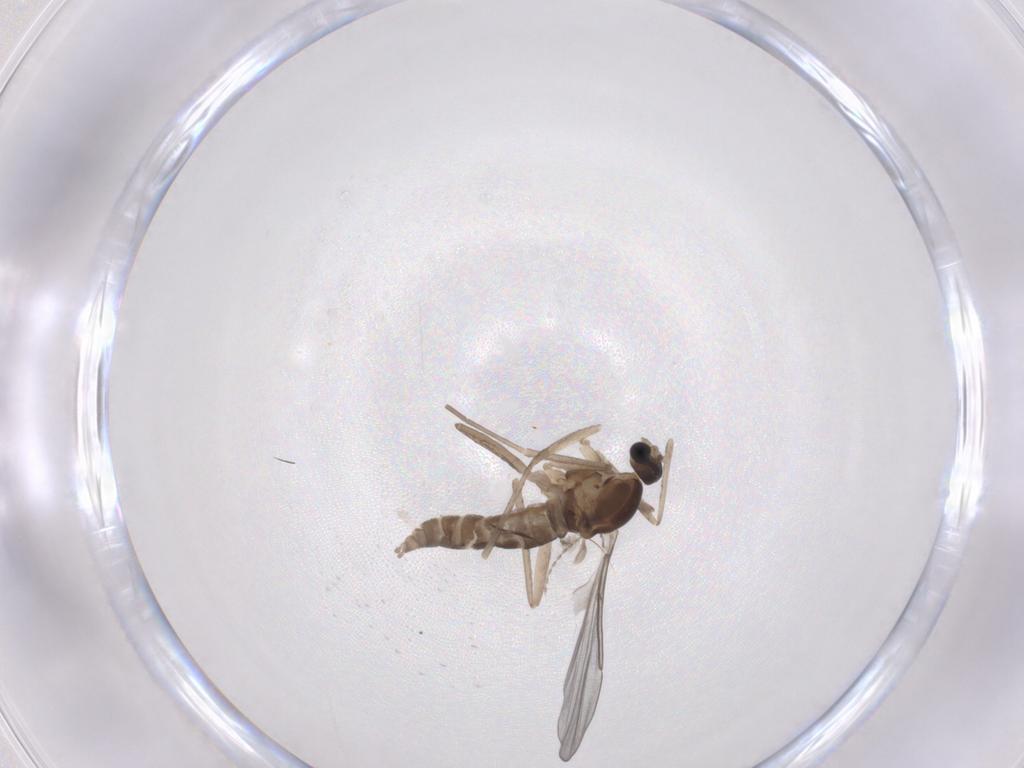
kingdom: Animalia
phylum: Arthropoda
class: Insecta
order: Diptera
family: Cecidomyiidae
